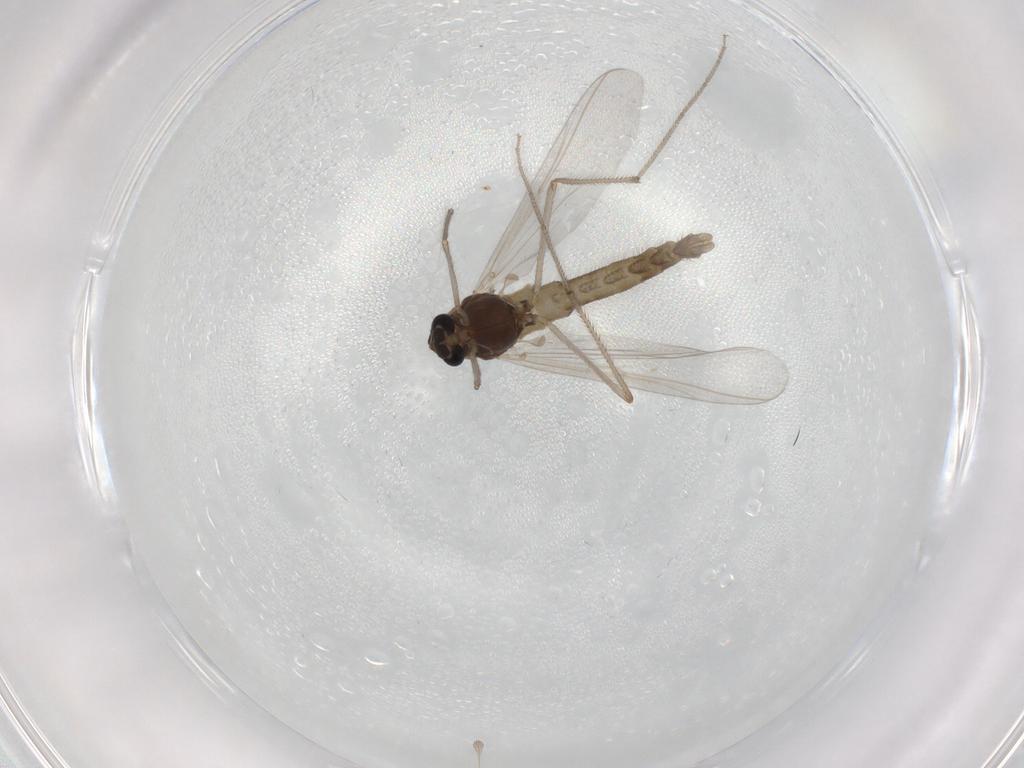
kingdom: Animalia
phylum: Arthropoda
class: Insecta
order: Diptera
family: Chironomidae
